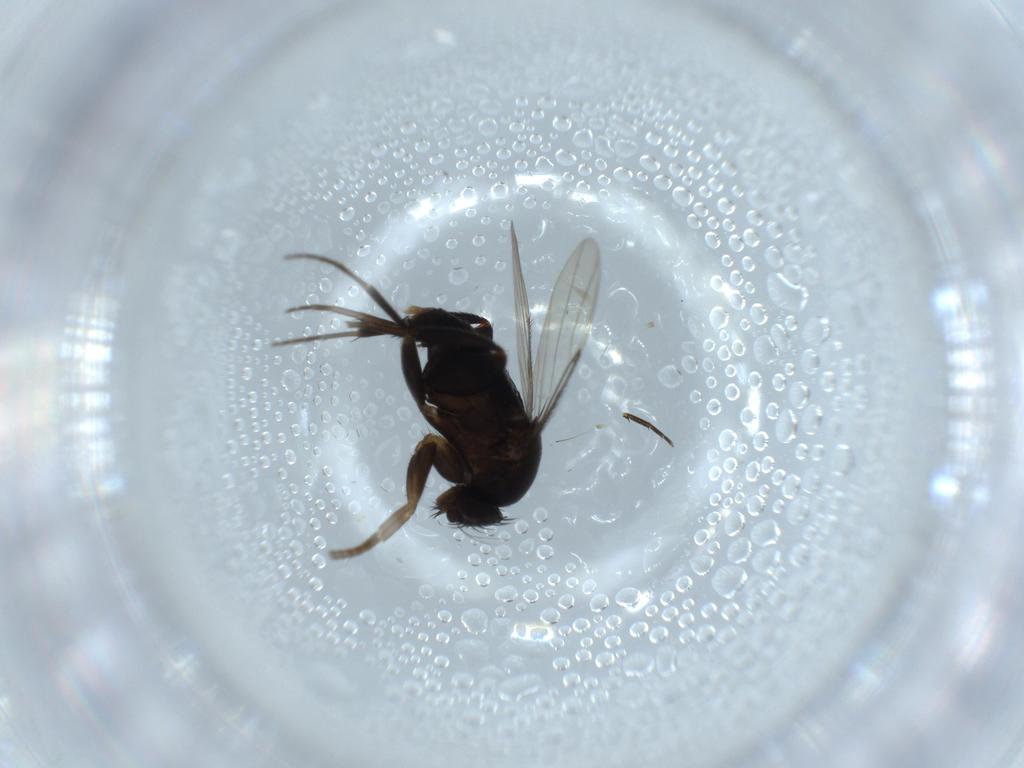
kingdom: Animalia
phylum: Arthropoda
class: Insecta
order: Diptera
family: Phoridae
